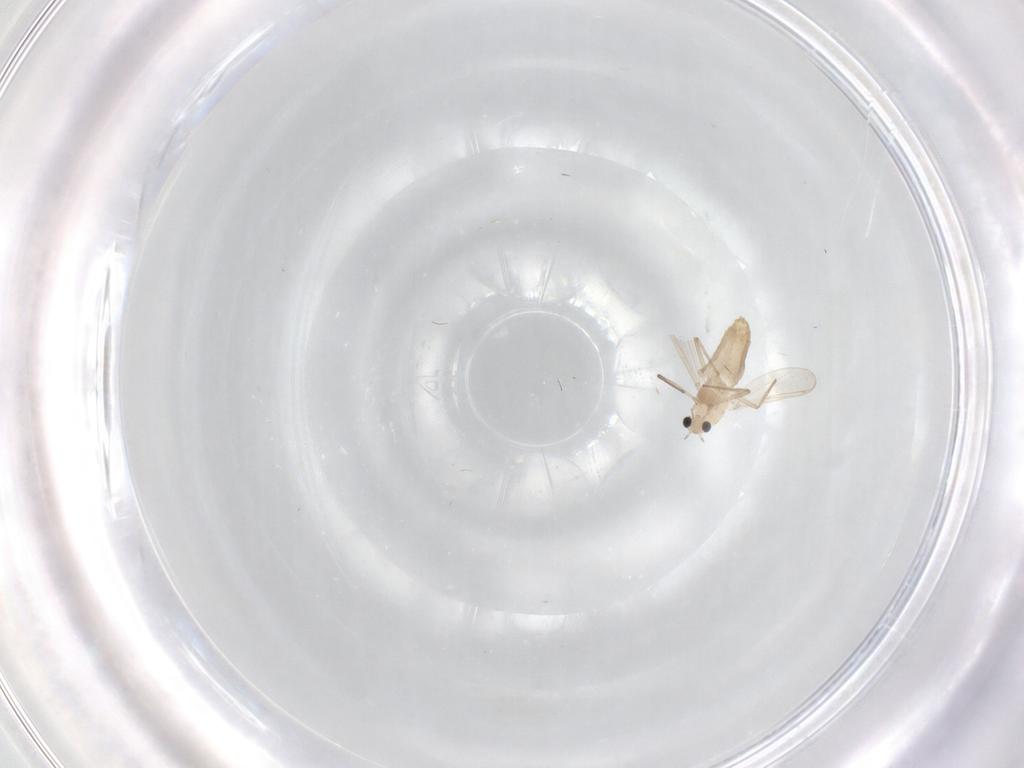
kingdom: Animalia
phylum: Arthropoda
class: Insecta
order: Diptera
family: Chironomidae
